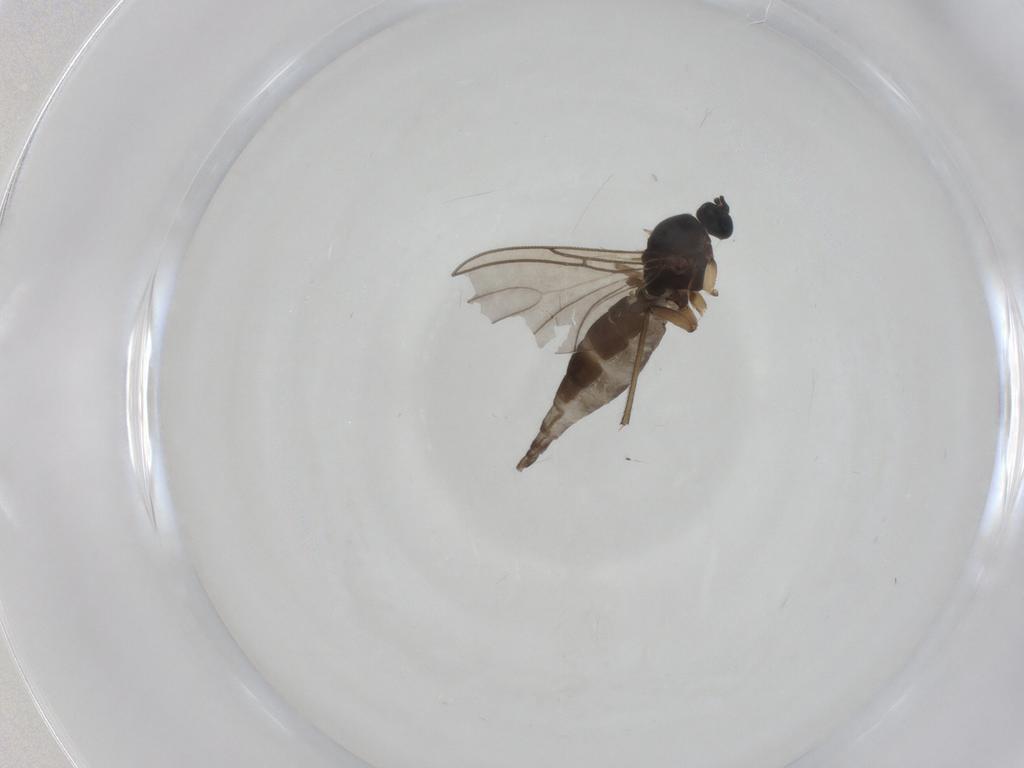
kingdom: Animalia
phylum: Arthropoda
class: Insecta
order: Diptera
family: Sciaridae
